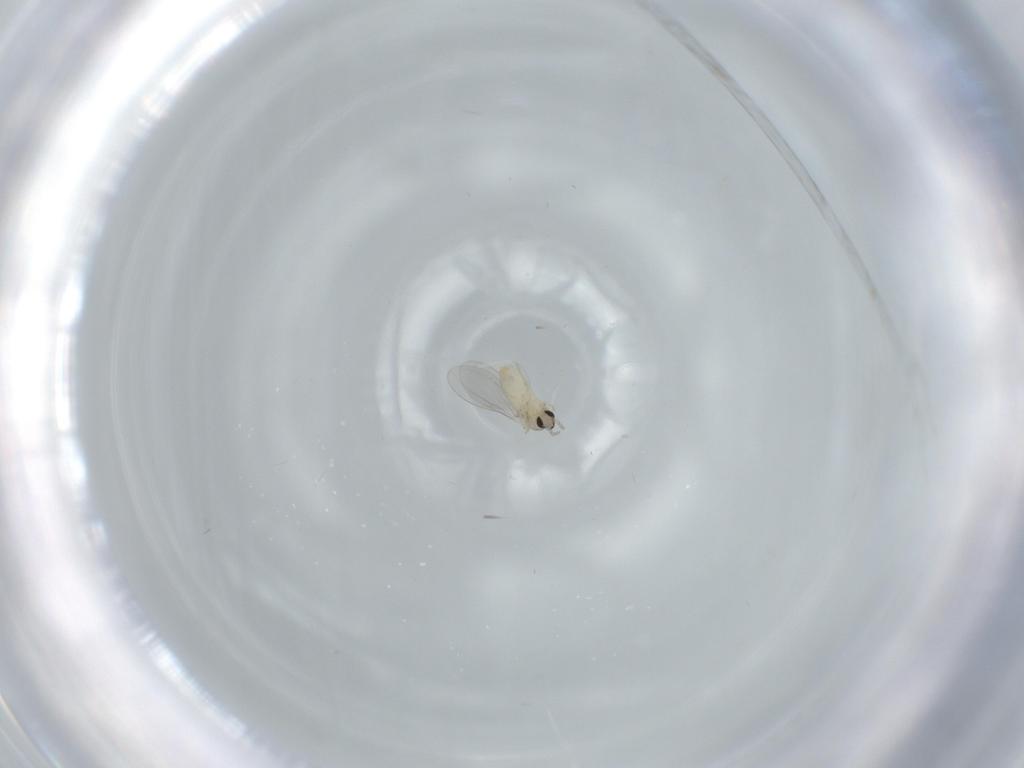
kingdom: Animalia
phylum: Arthropoda
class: Insecta
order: Diptera
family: Cecidomyiidae
